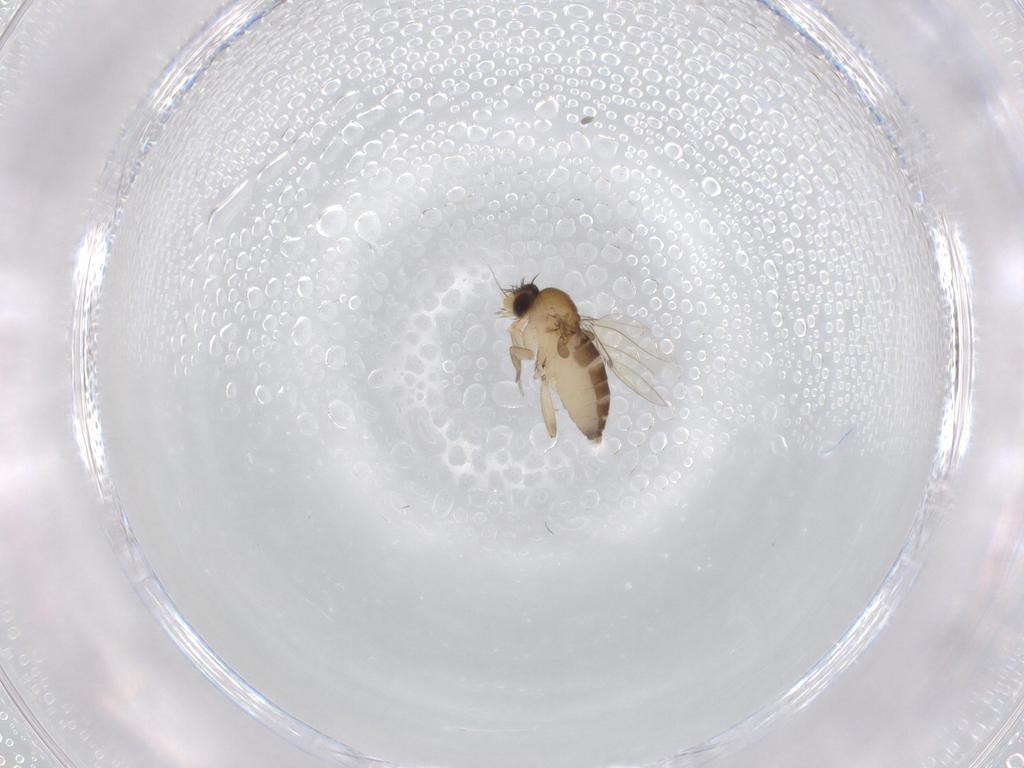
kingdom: Animalia
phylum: Arthropoda
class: Insecta
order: Diptera
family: Phoridae
